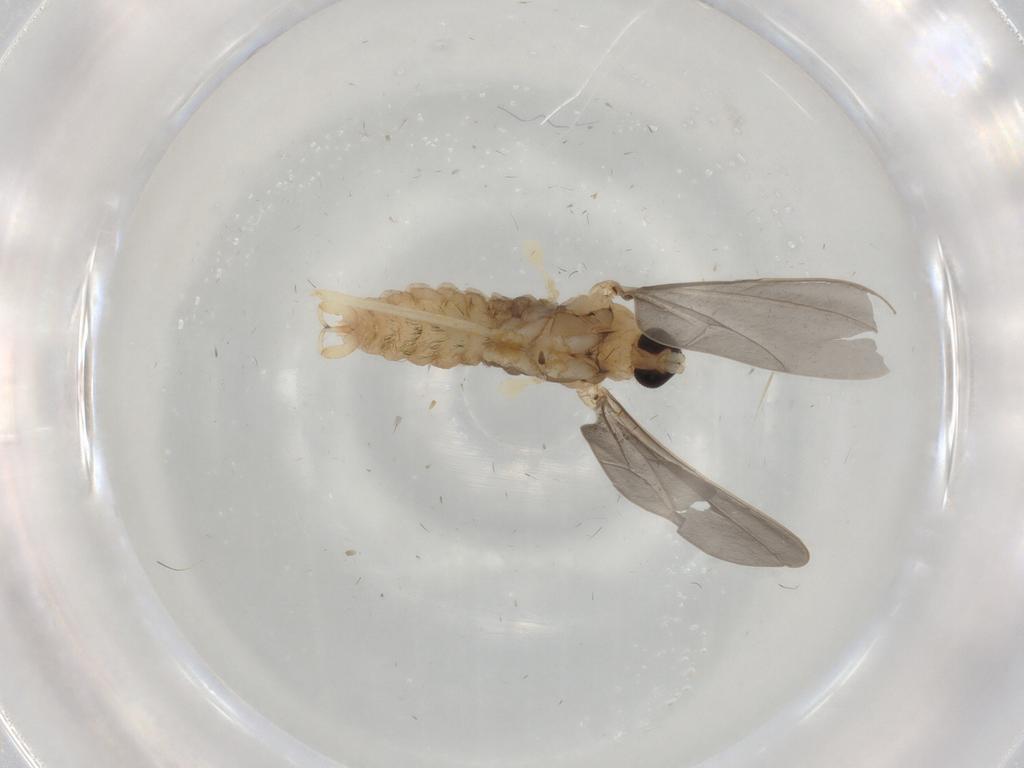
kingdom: Animalia
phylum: Arthropoda
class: Insecta
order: Diptera
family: Cecidomyiidae
